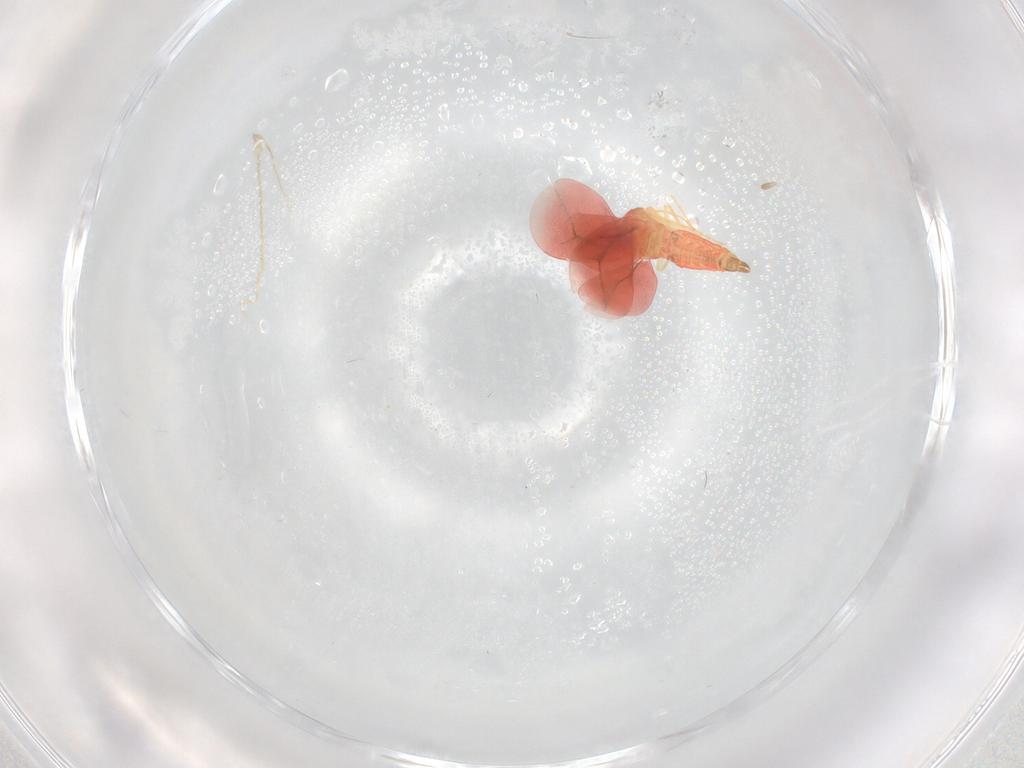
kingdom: Animalia
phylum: Arthropoda
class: Insecta
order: Hemiptera
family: Aleyrodidae
